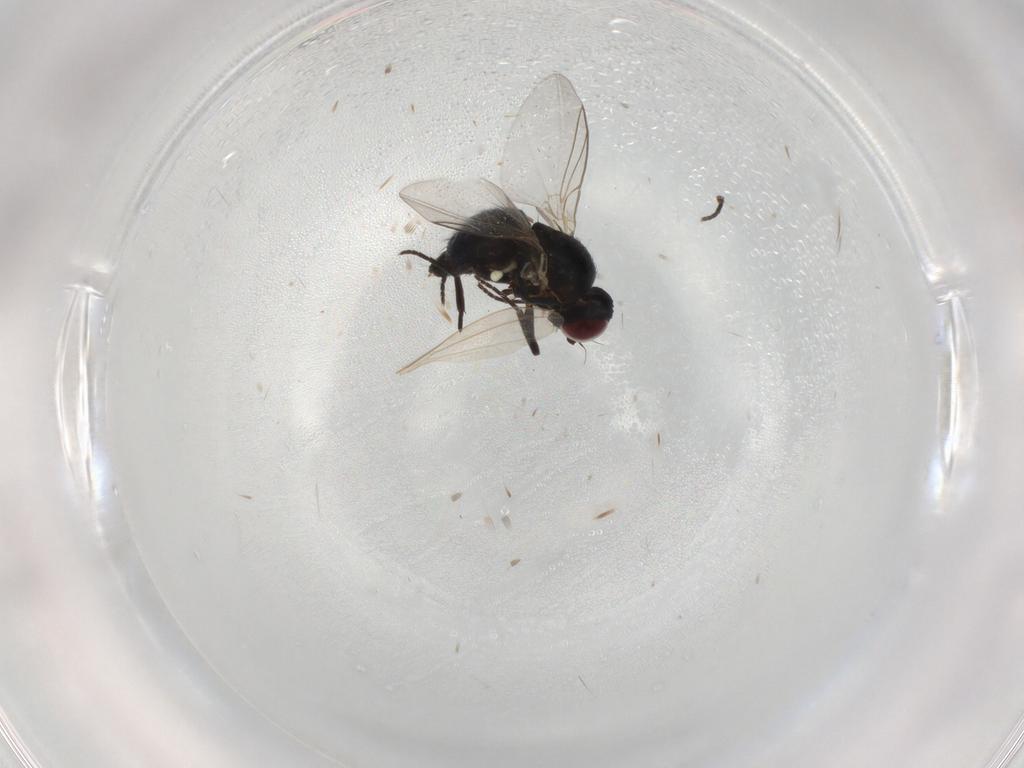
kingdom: Animalia
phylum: Arthropoda
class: Insecta
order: Diptera
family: Agromyzidae
